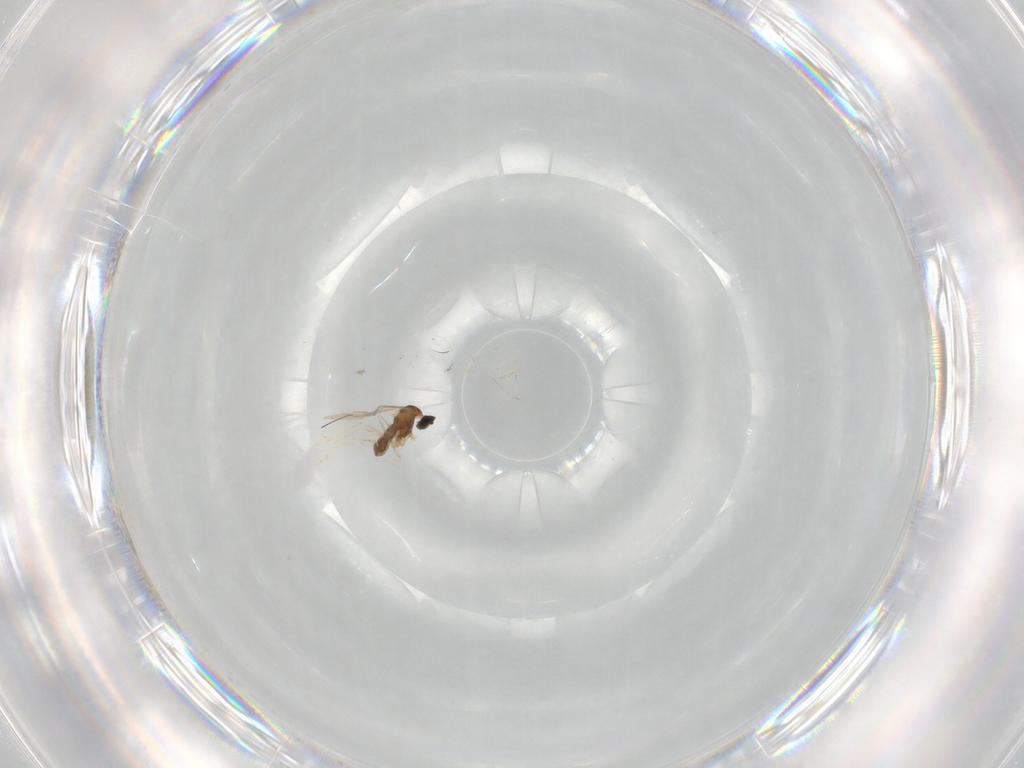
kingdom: Animalia
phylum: Arthropoda
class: Insecta
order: Diptera
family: Cecidomyiidae
